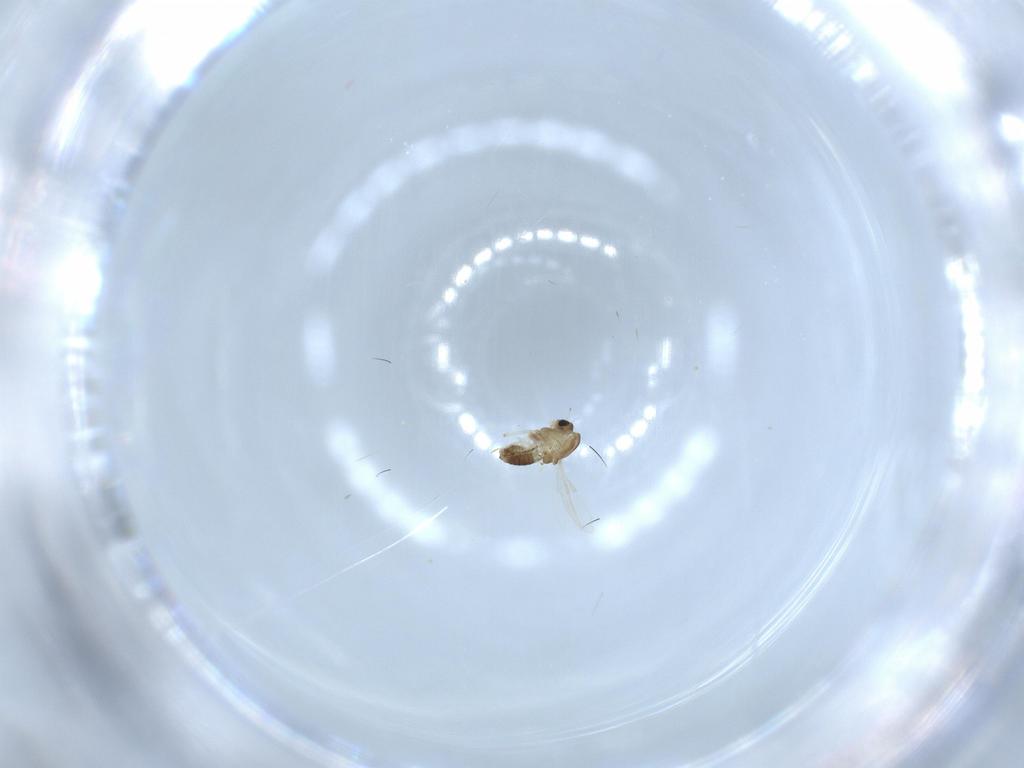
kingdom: Animalia
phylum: Arthropoda
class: Insecta
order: Diptera
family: Chironomidae
